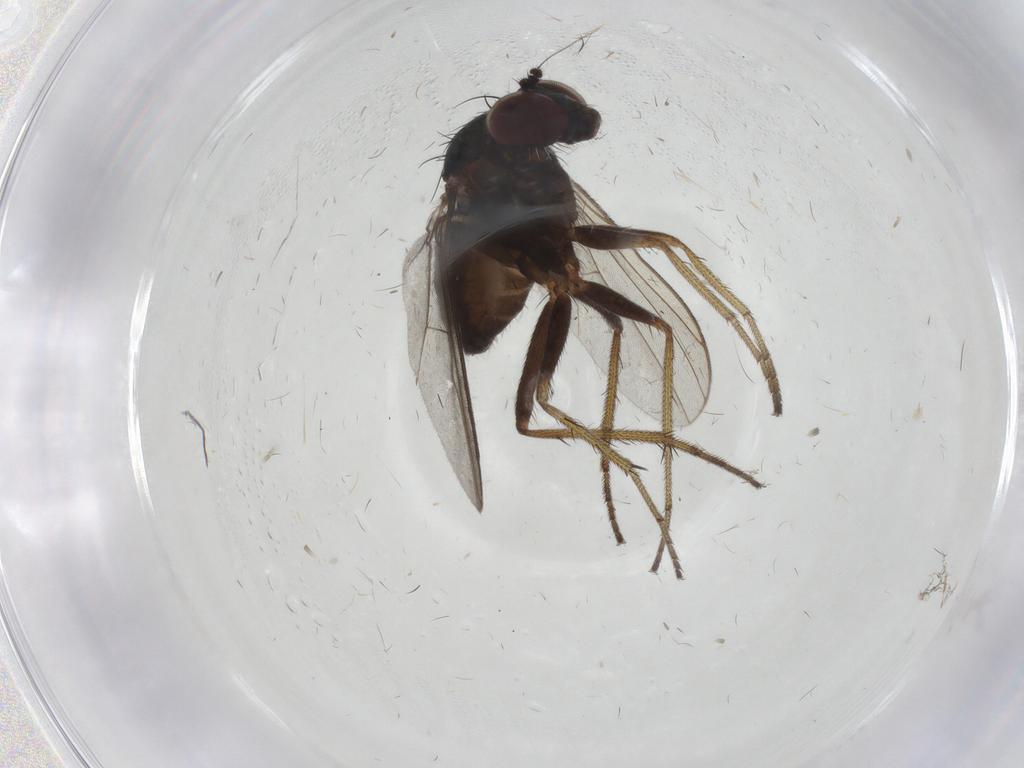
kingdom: Animalia
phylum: Arthropoda
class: Insecta
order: Diptera
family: Dolichopodidae
